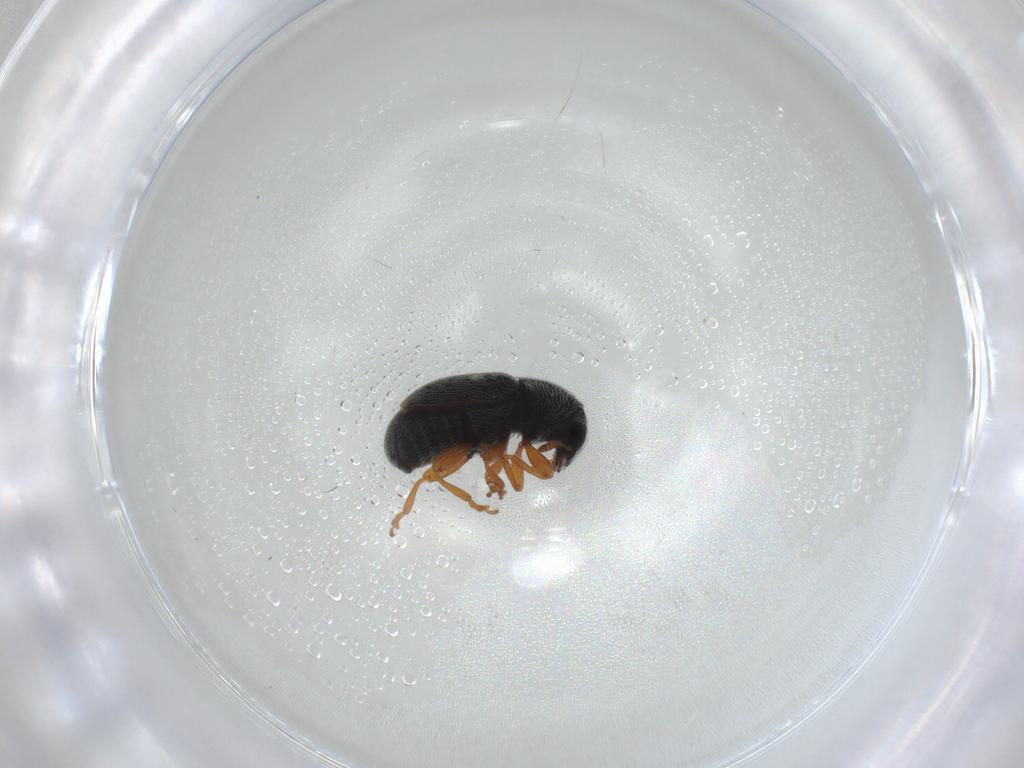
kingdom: Animalia
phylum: Arthropoda
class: Insecta
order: Coleoptera
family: Anthribidae
